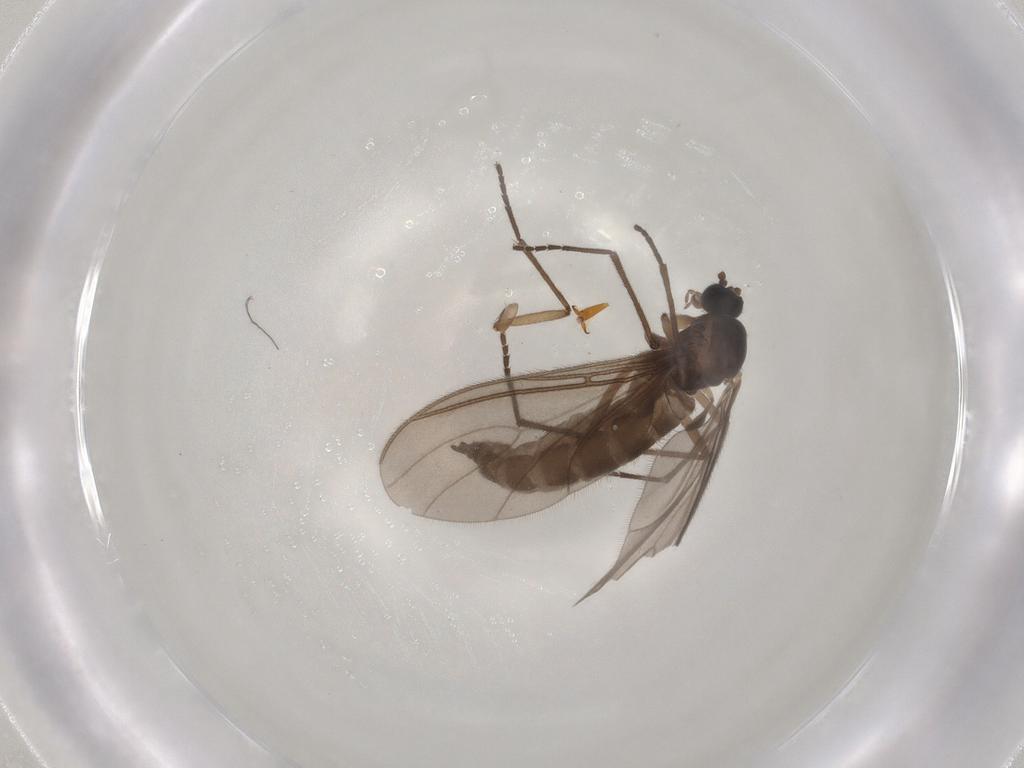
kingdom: Animalia
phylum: Arthropoda
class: Insecta
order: Diptera
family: Sciaridae
